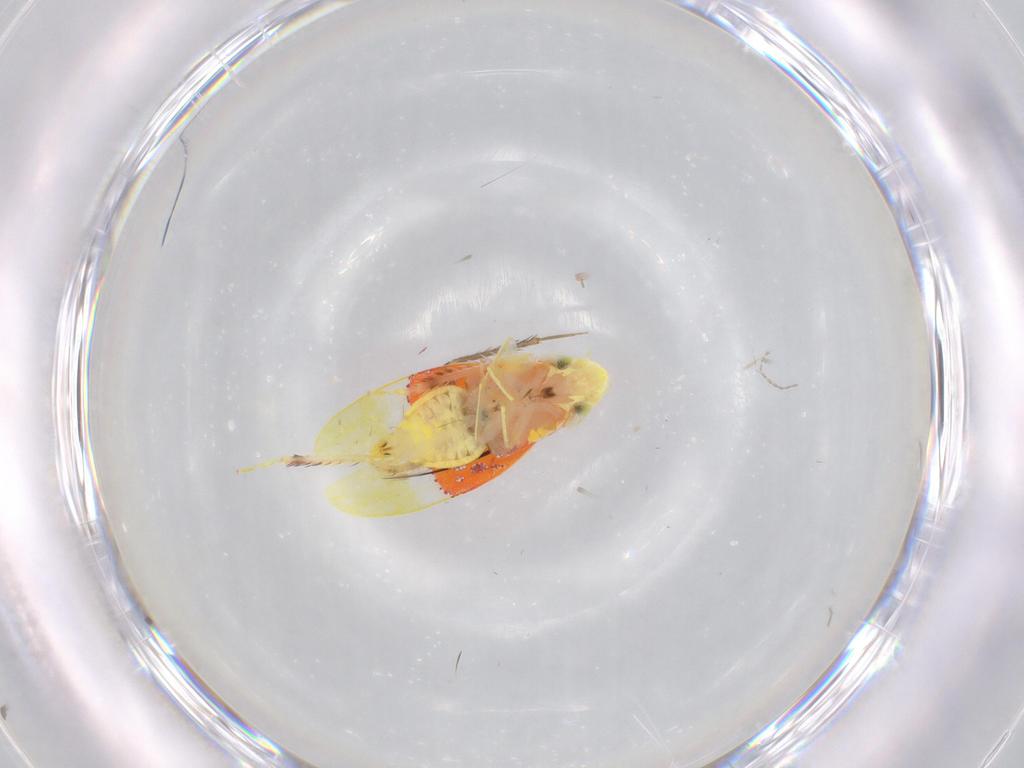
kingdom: Animalia
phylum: Arthropoda
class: Insecta
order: Hemiptera
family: Cicadellidae
